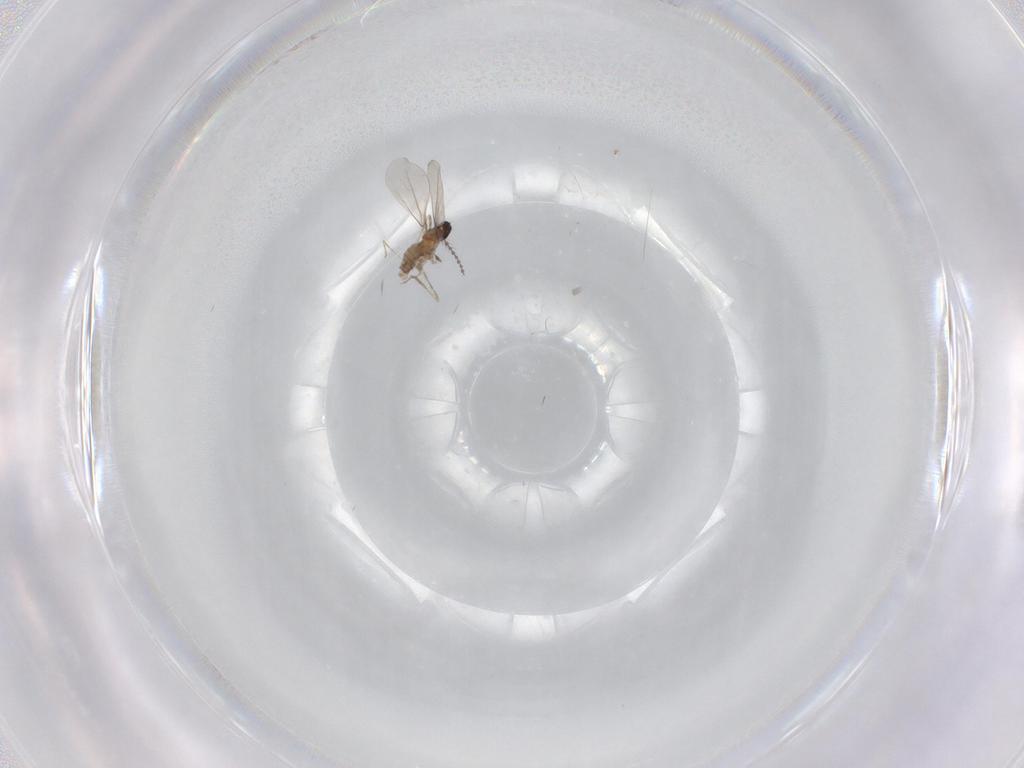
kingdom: Animalia
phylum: Arthropoda
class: Insecta
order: Diptera
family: Cecidomyiidae
